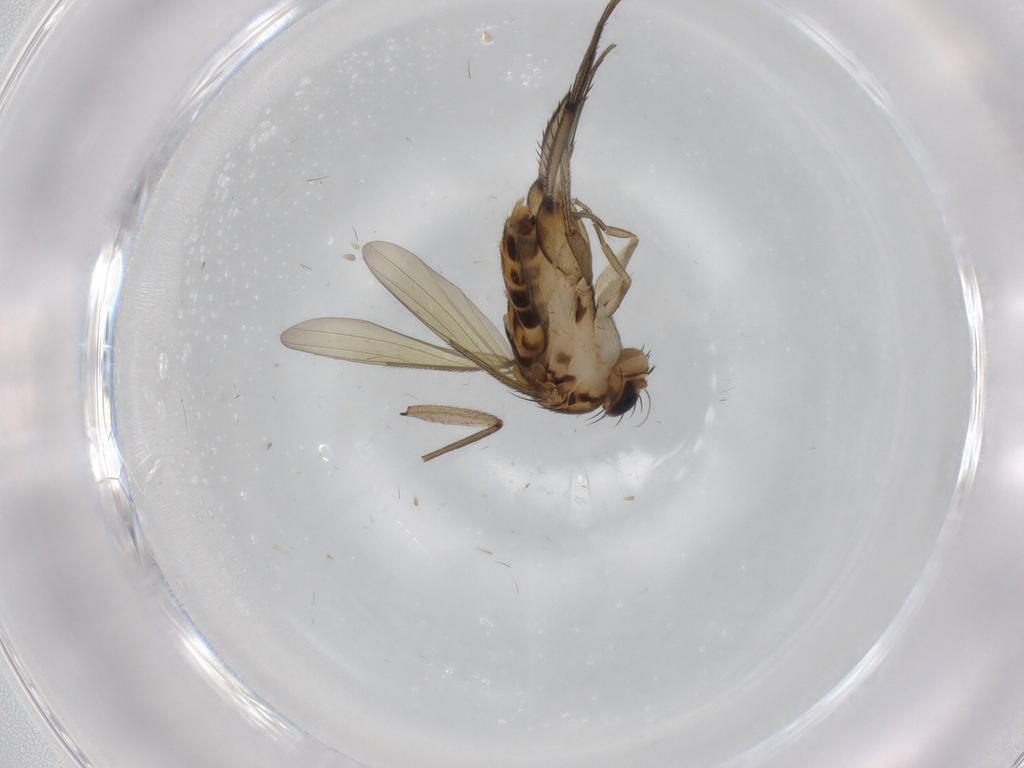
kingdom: Animalia
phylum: Arthropoda
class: Insecta
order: Diptera
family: Phoridae
